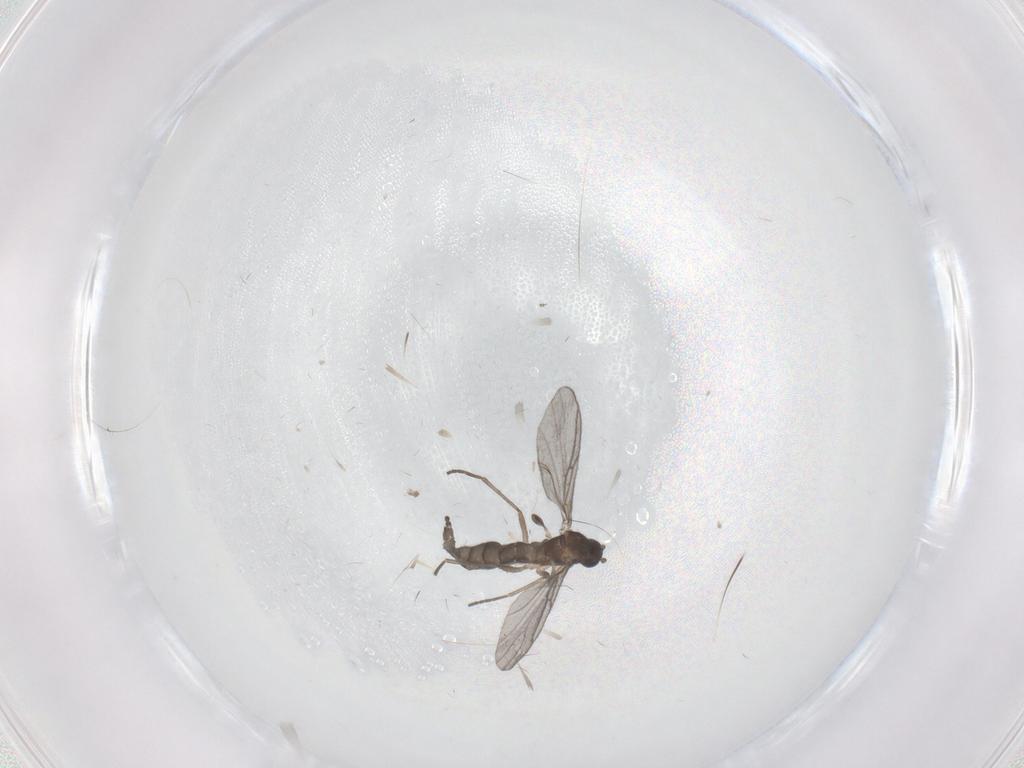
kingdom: Animalia
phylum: Arthropoda
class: Insecta
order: Diptera
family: Sciaridae
